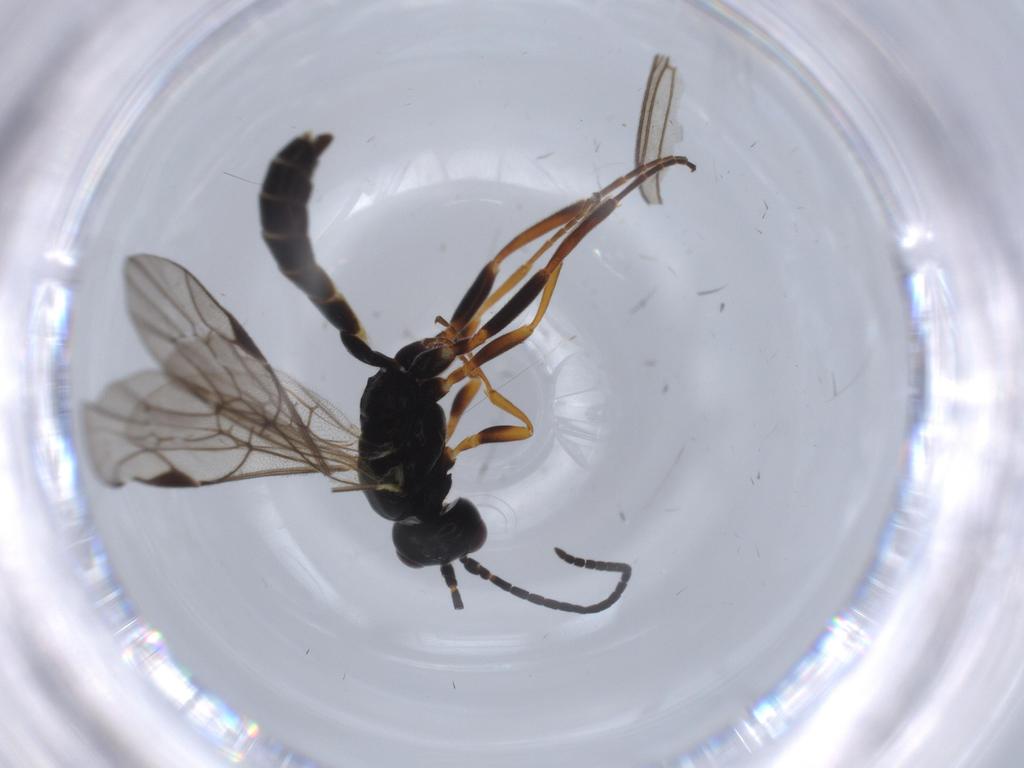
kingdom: Animalia
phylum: Arthropoda
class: Insecta
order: Hymenoptera
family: Ichneumonidae
